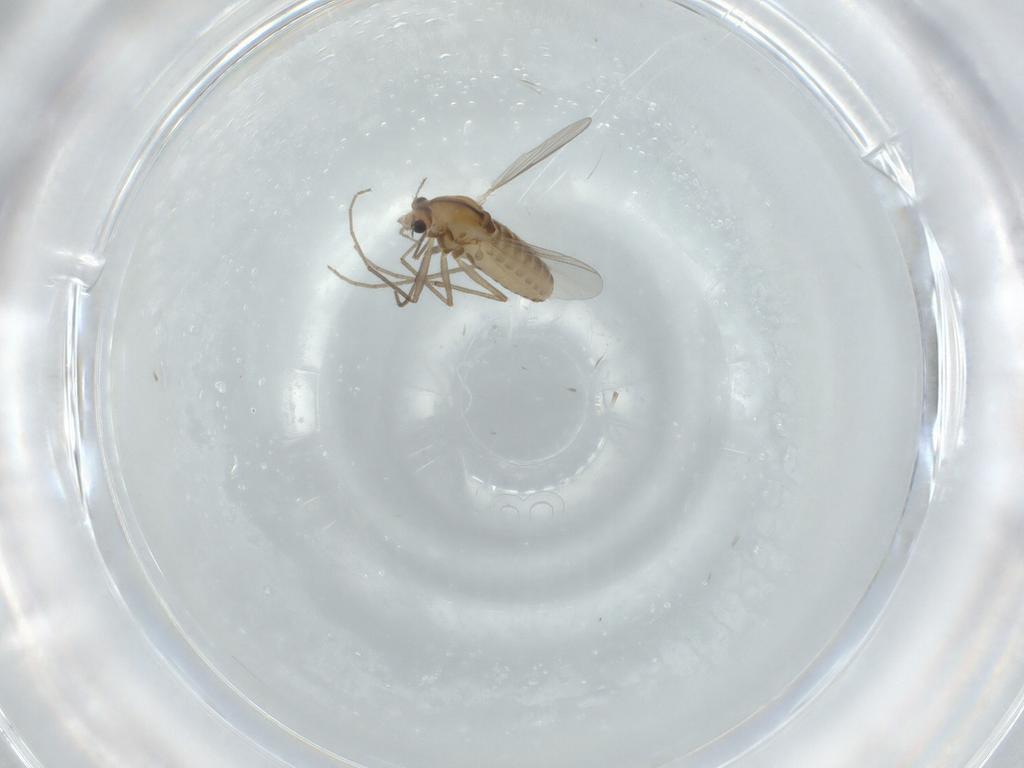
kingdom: Animalia
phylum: Arthropoda
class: Insecta
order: Diptera
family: Chironomidae
